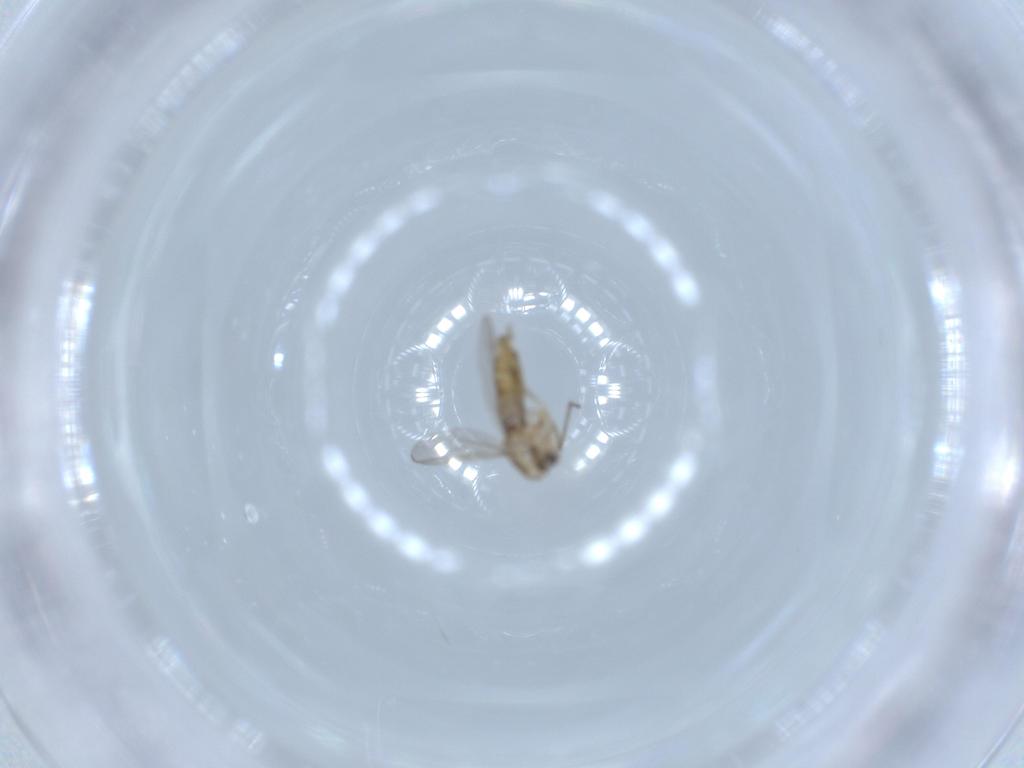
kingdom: Animalia
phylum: Arthropoda
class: Insecta
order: Diptera
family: Chironomidae
